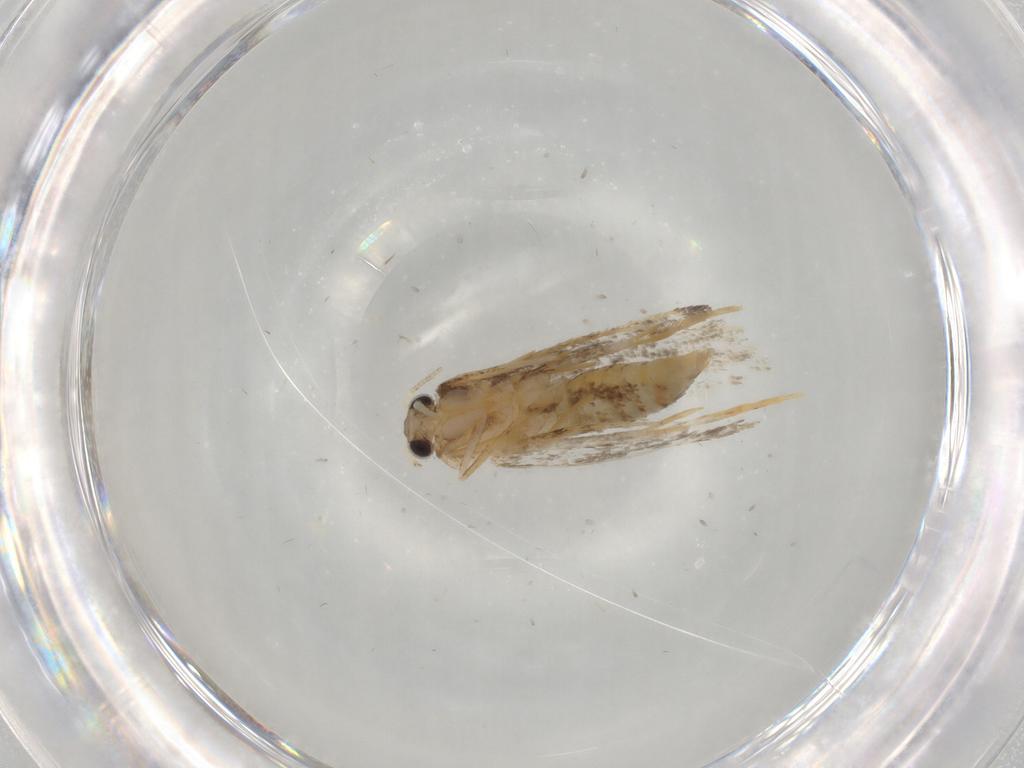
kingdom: Animalia
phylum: Arthropoda
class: Insecta
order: Lepidoptera
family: Tineidae
